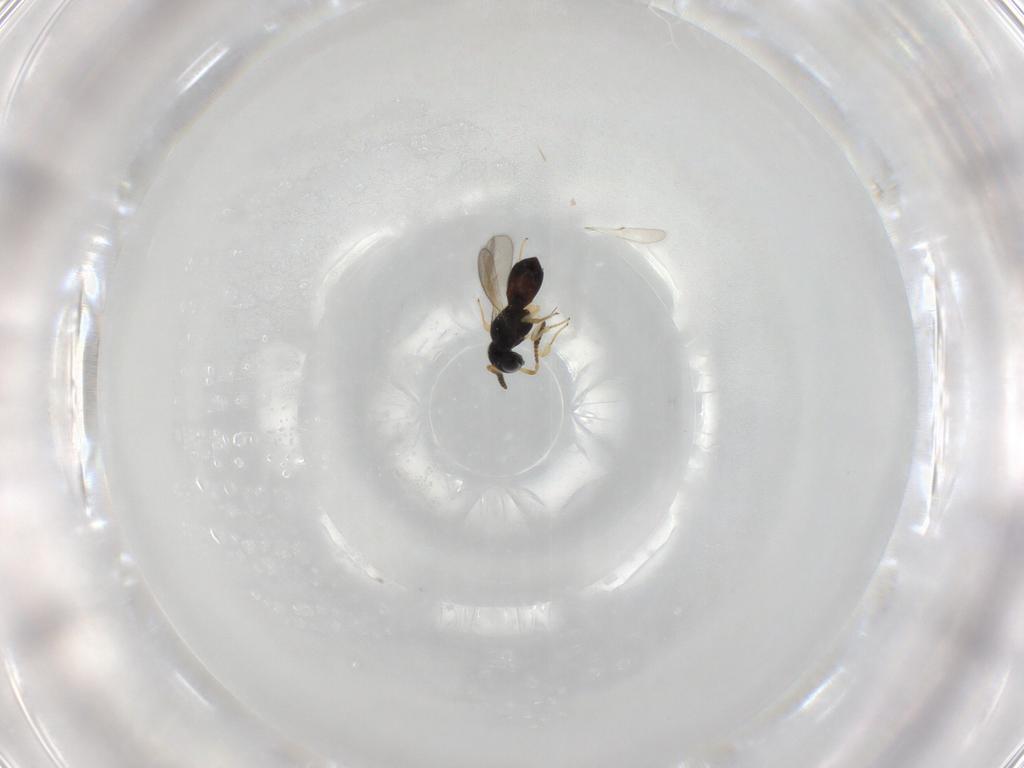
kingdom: Animalia
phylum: Arthropoda
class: Insecta
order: Hymenoptera
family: Scelionidae
